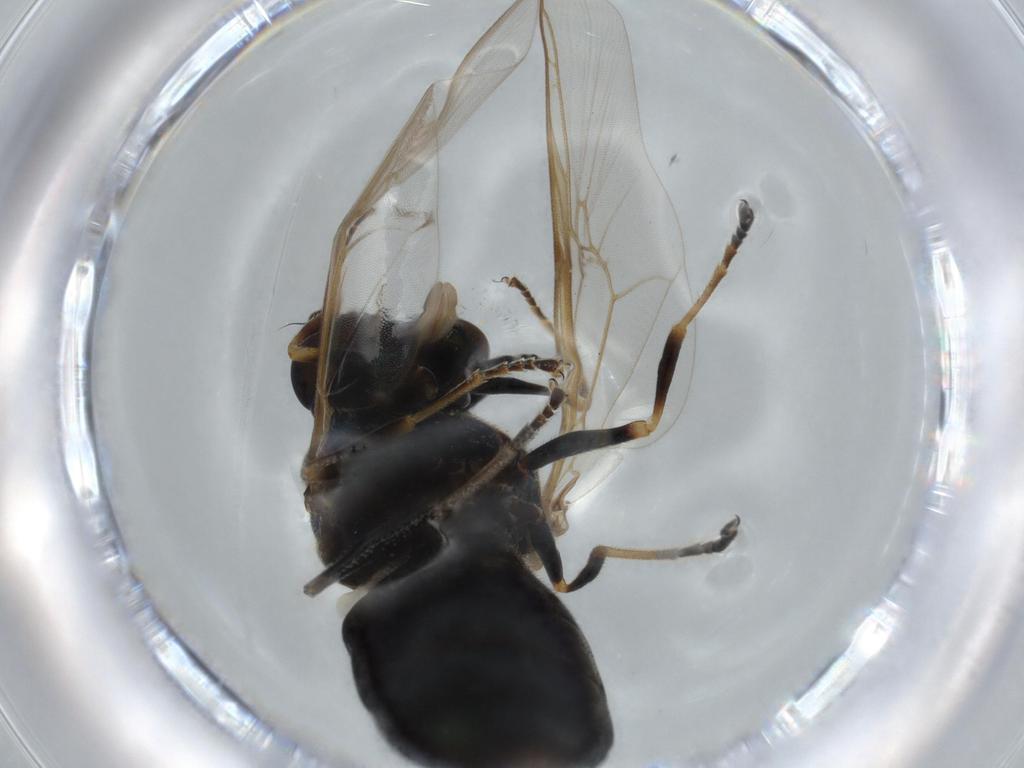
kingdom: Animalia
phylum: Arthropoda
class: Insecta
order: Diptera
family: Stratiomyidae
